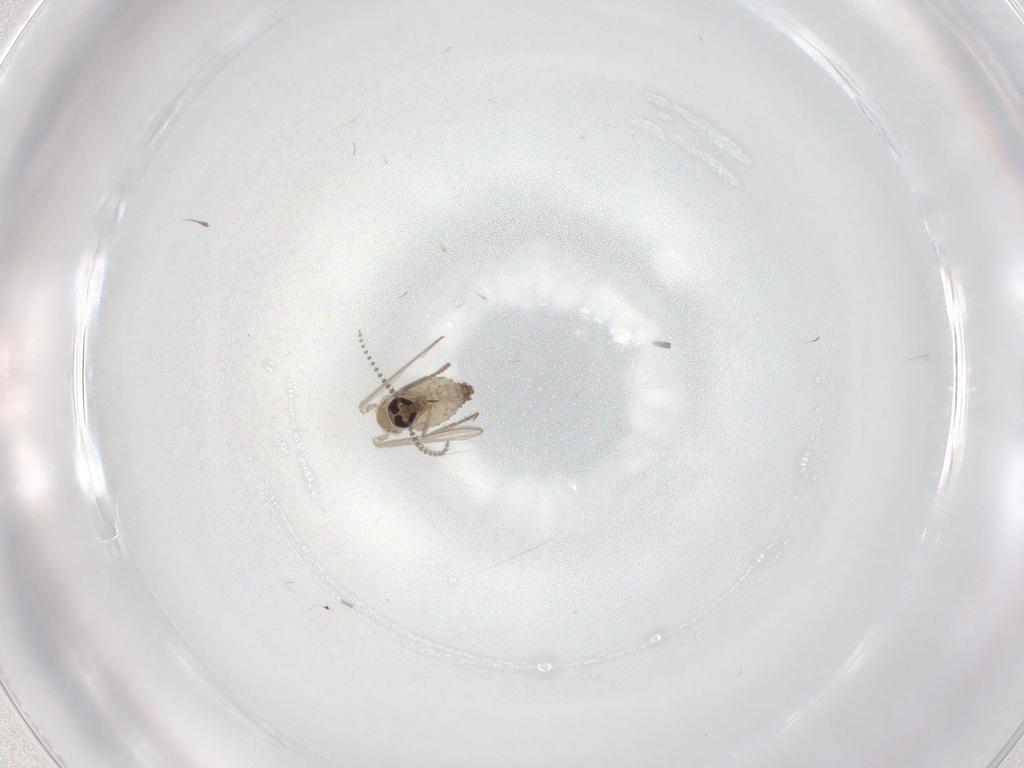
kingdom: Animalia
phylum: Arthropoda
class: Insecta
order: Diptera
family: Psychodidae
